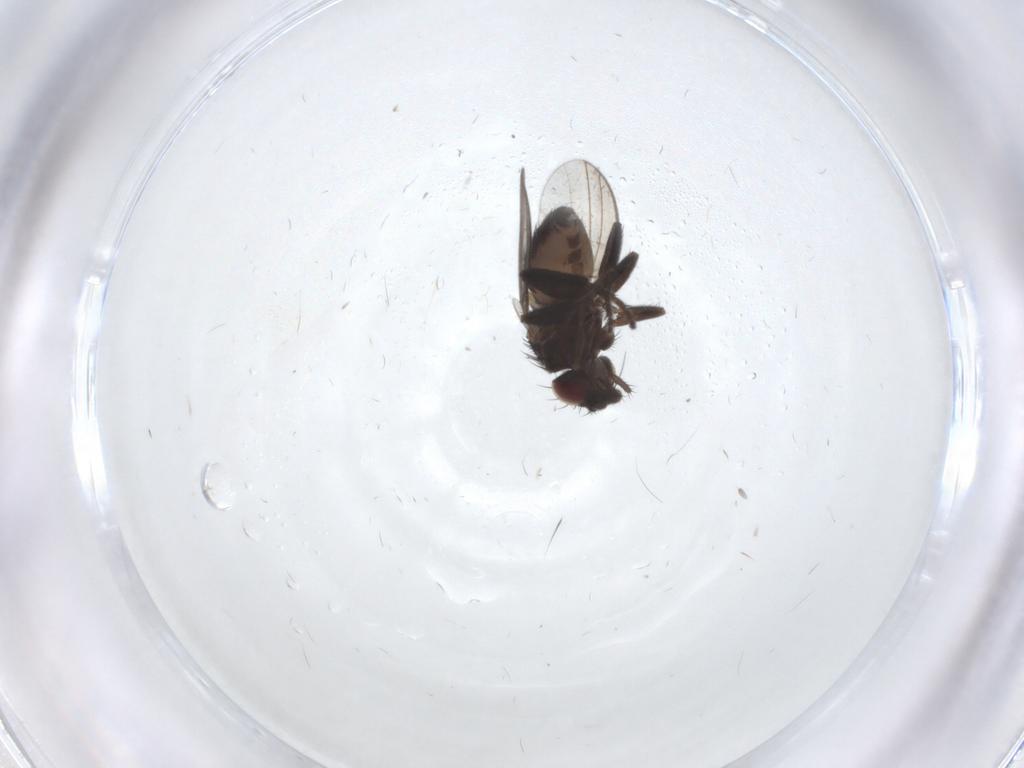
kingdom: Animalia
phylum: Arthropoda
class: Insecta
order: Diptera
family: Milichiidae
